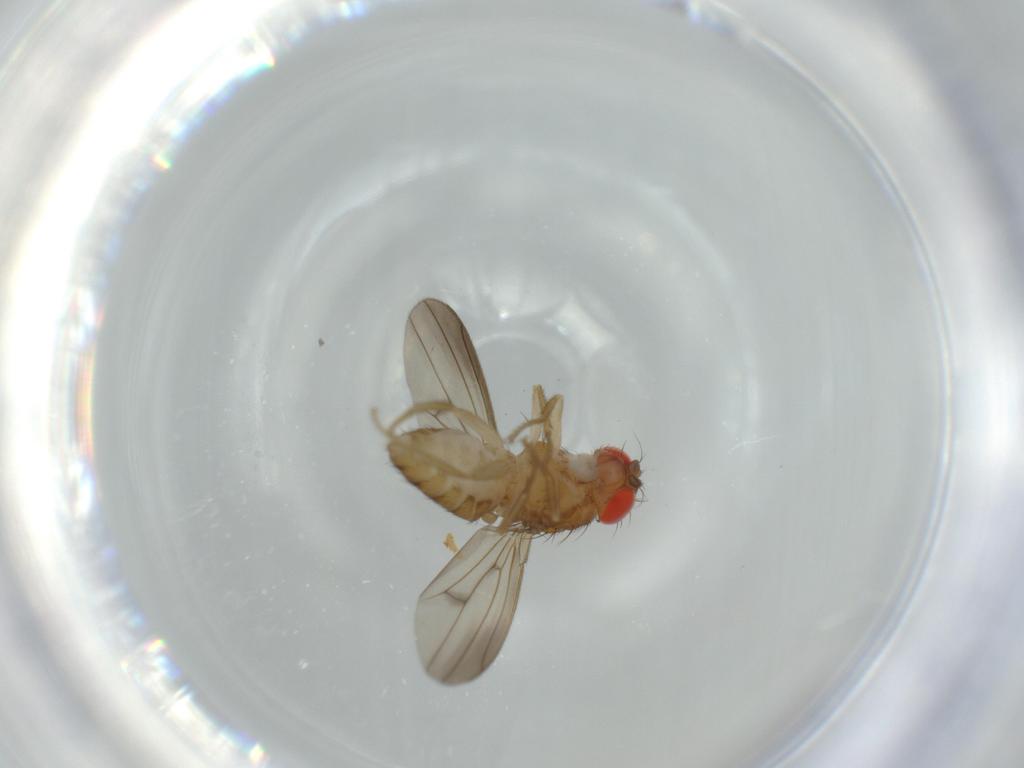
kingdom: Animalia
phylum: Arthropoda
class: Insecta
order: Diptera
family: Drosophilidae
